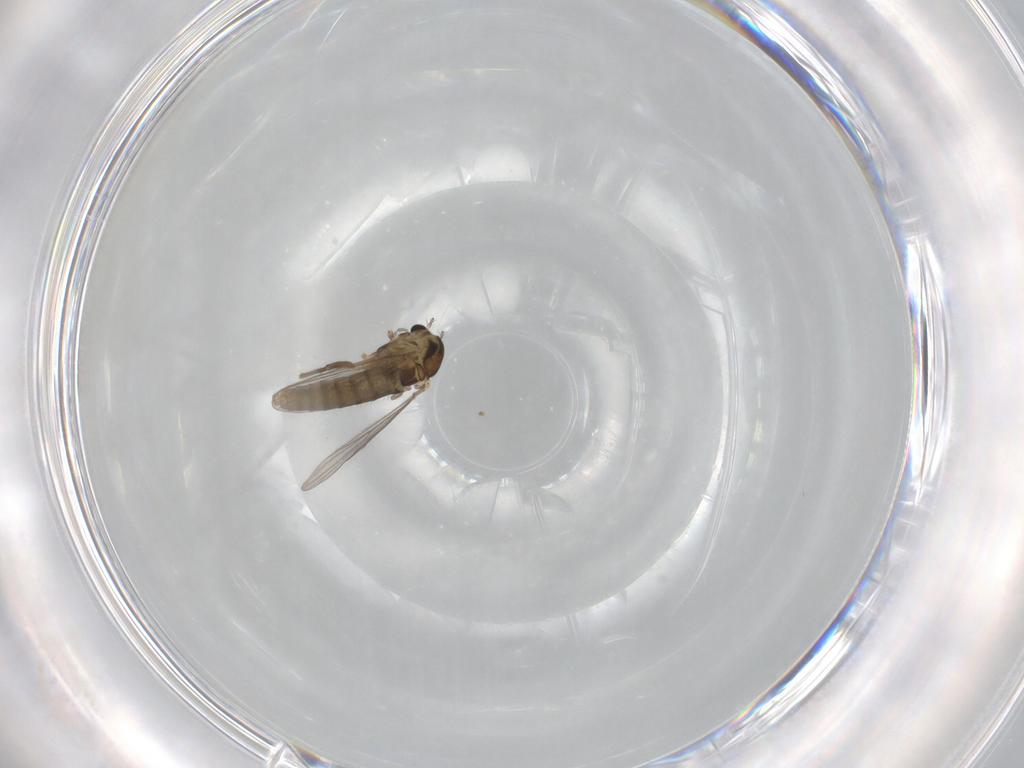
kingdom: Animalia
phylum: Arthropoda
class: Insecta
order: Diptera
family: Chironomidae
